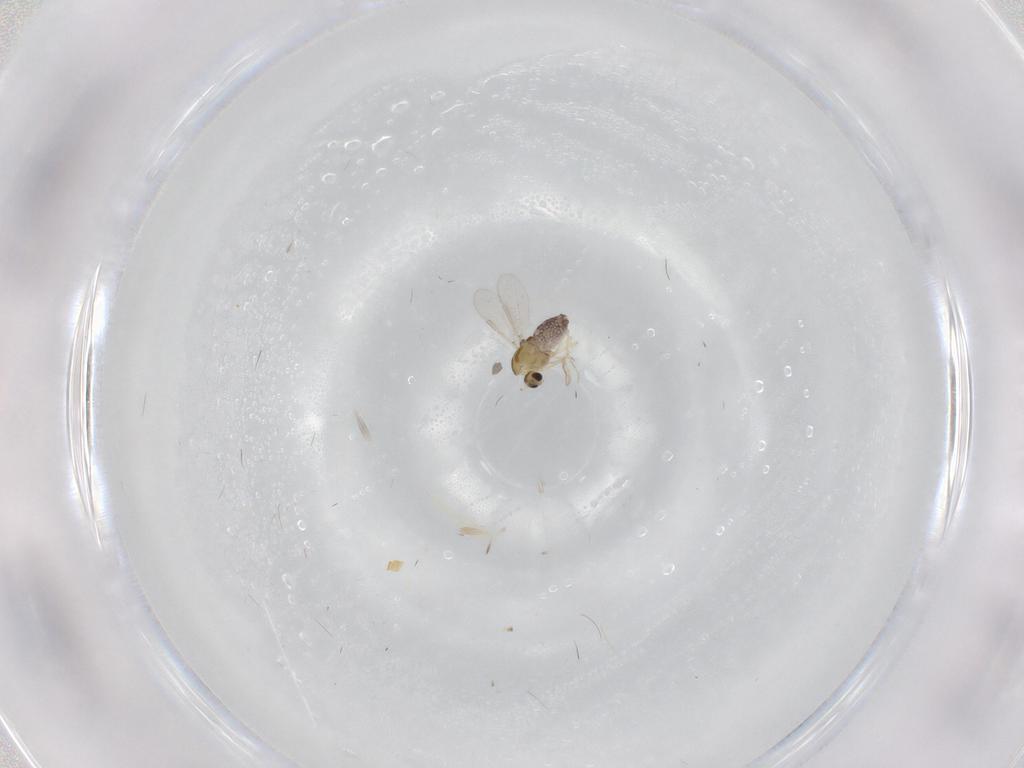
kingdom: Animalia
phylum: Arthropoda
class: Insecta
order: Diptera
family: Chironomidae
